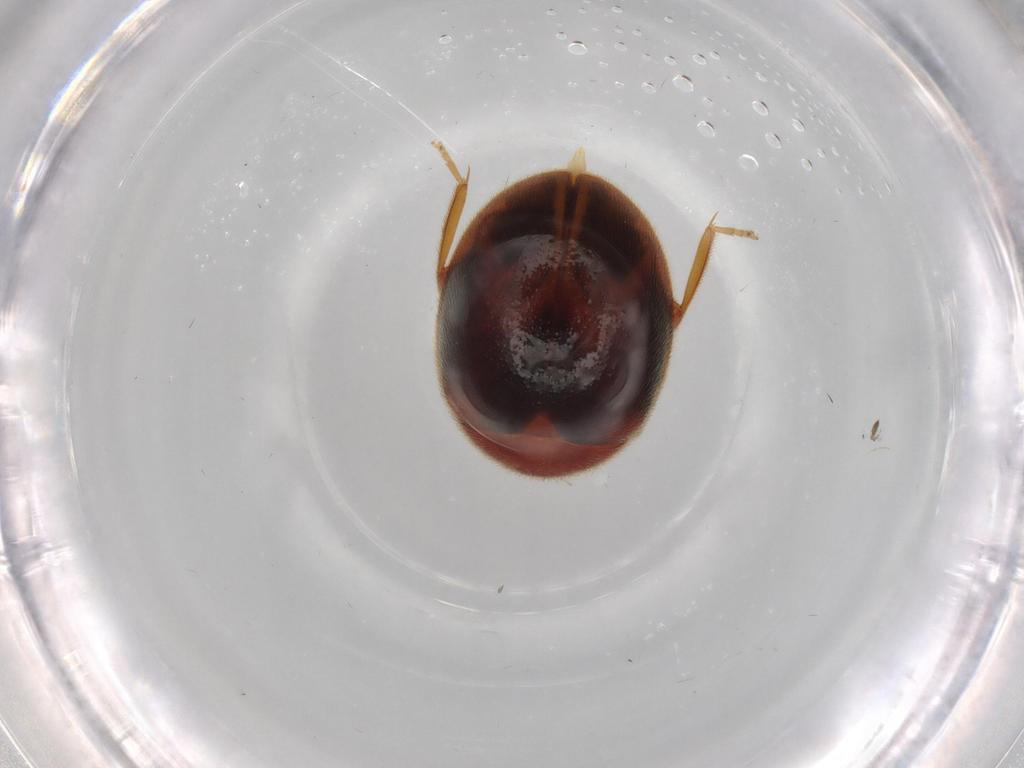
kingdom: Animalia
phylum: Arthropoda
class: Insecta
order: Coleoptera
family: Scirtidae
